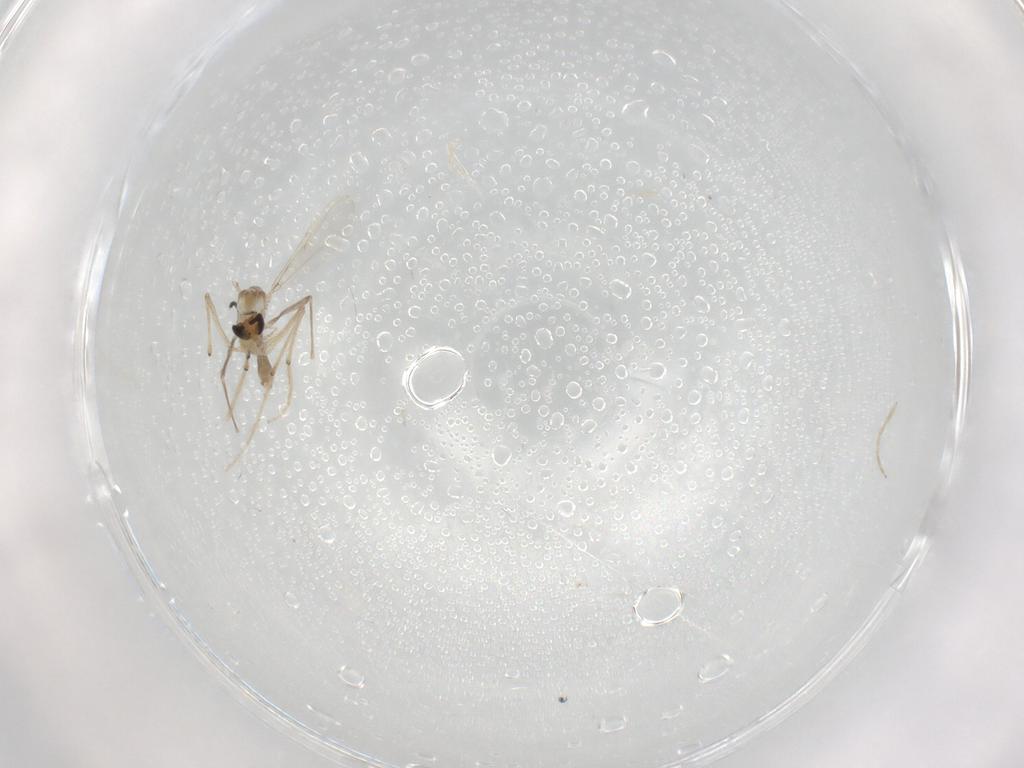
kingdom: Animalia
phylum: Arthropoda
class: Insecta
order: Diptera
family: Chironomidae
